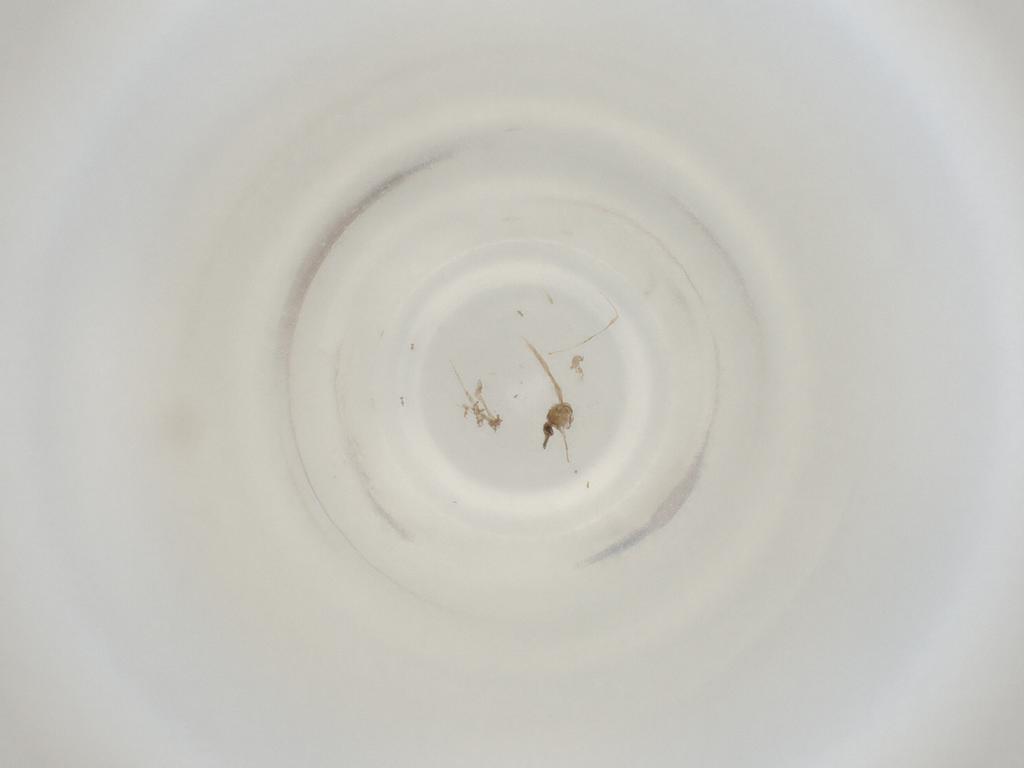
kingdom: Animalia
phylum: Arthropoda
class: Insecta
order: Diptera
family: Cecidomyiidae
